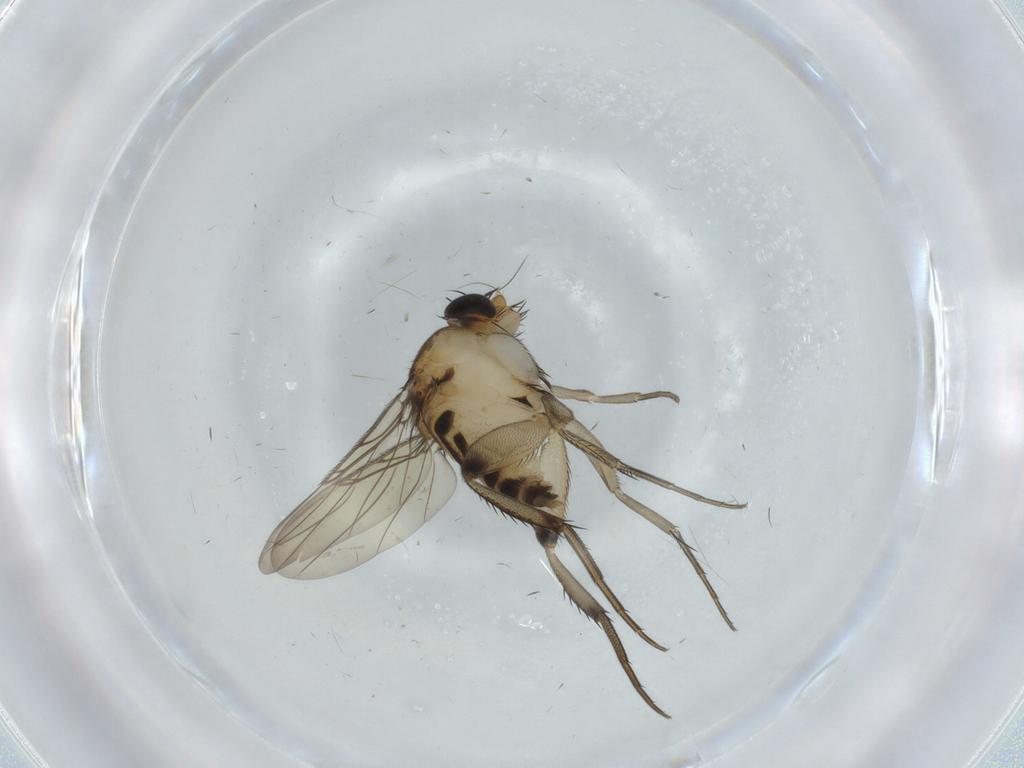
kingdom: Animalia
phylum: Arthropoda
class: Insecta
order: Diptera
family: Phoridae
